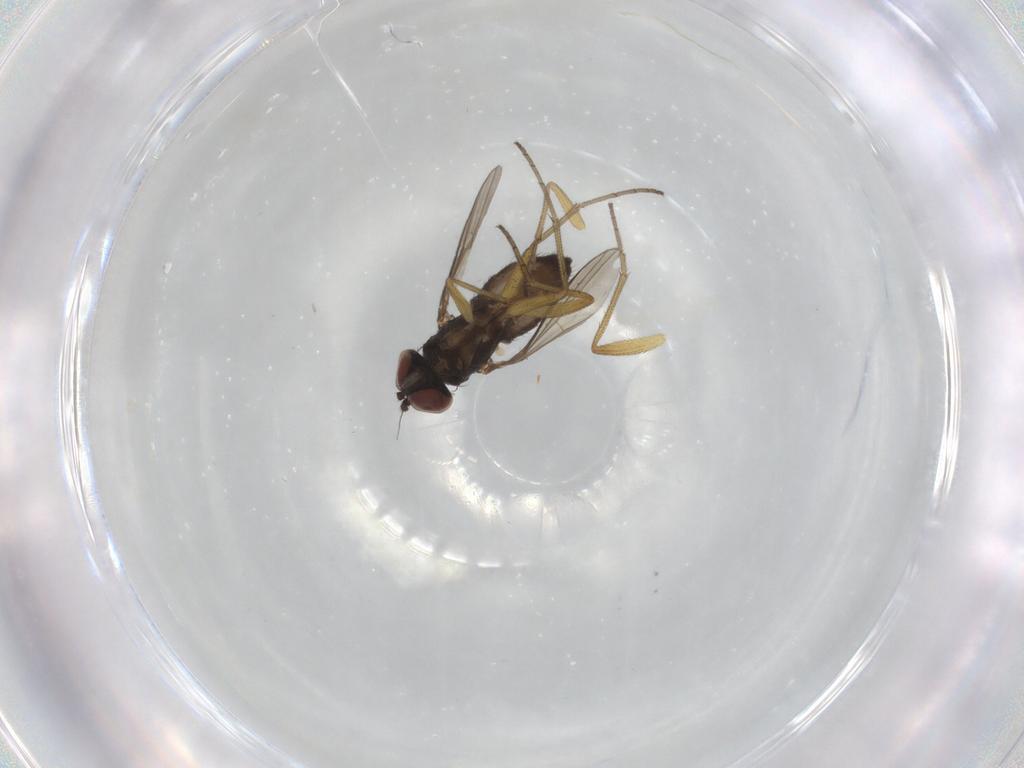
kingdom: Animalia
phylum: Arthropoda
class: Insecta
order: Diptera
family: Dolichopodidae
